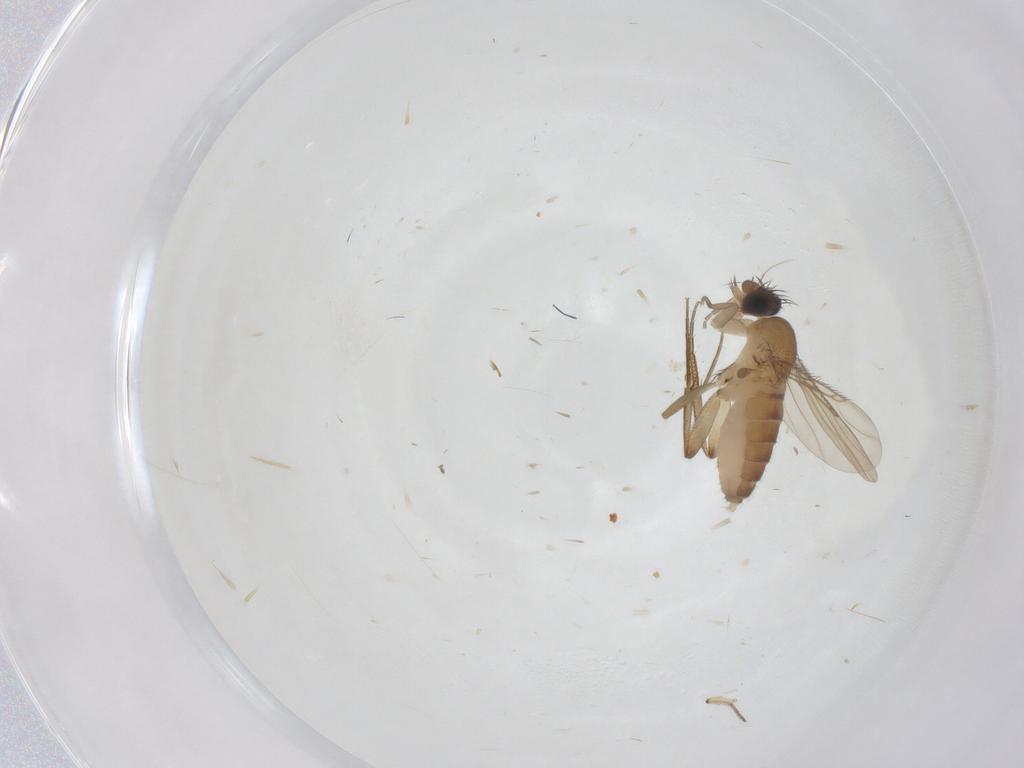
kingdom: Animalia
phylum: Arthropoda
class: Insecta
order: Diptera
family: Phoridae
